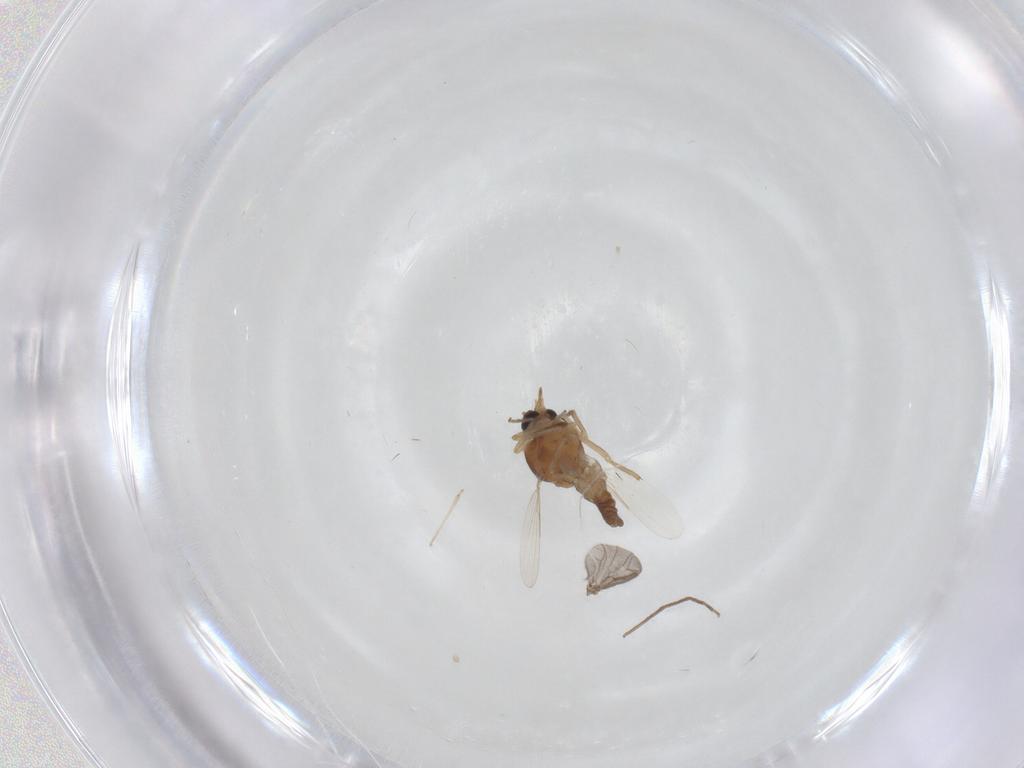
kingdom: Animalia
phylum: Arthropoda
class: Insecta
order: Diptera
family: Ceratopogonidae
